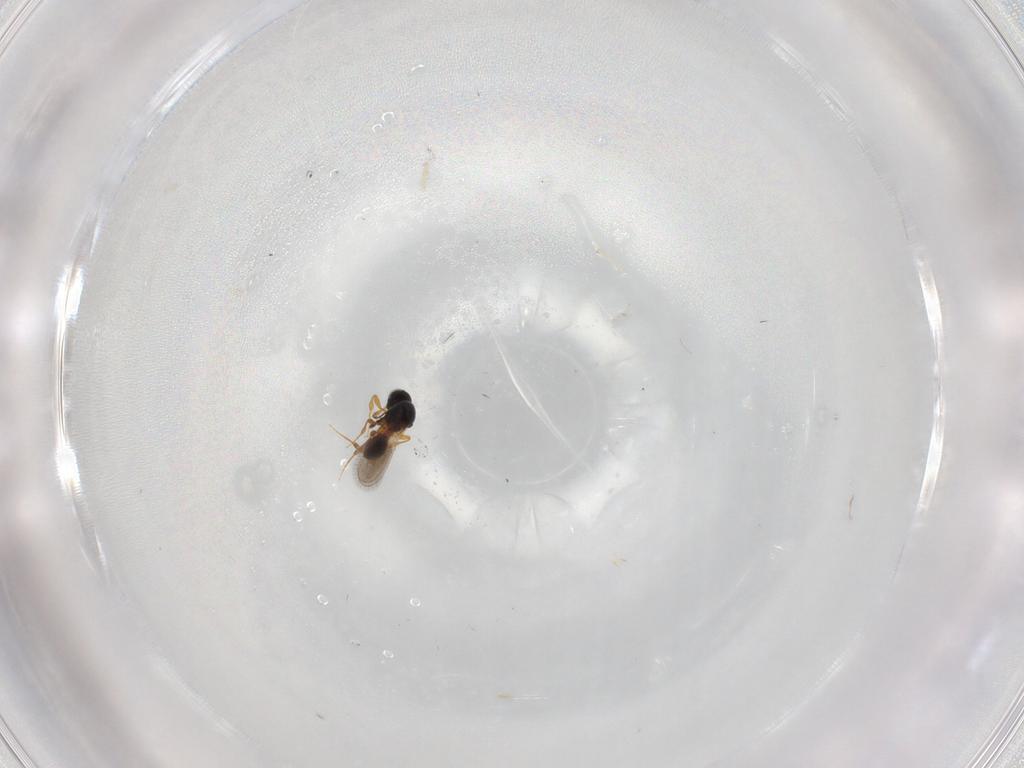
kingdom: Animalia
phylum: Arthropoda
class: Insecta
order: Hymenoptera
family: Platygastridae
